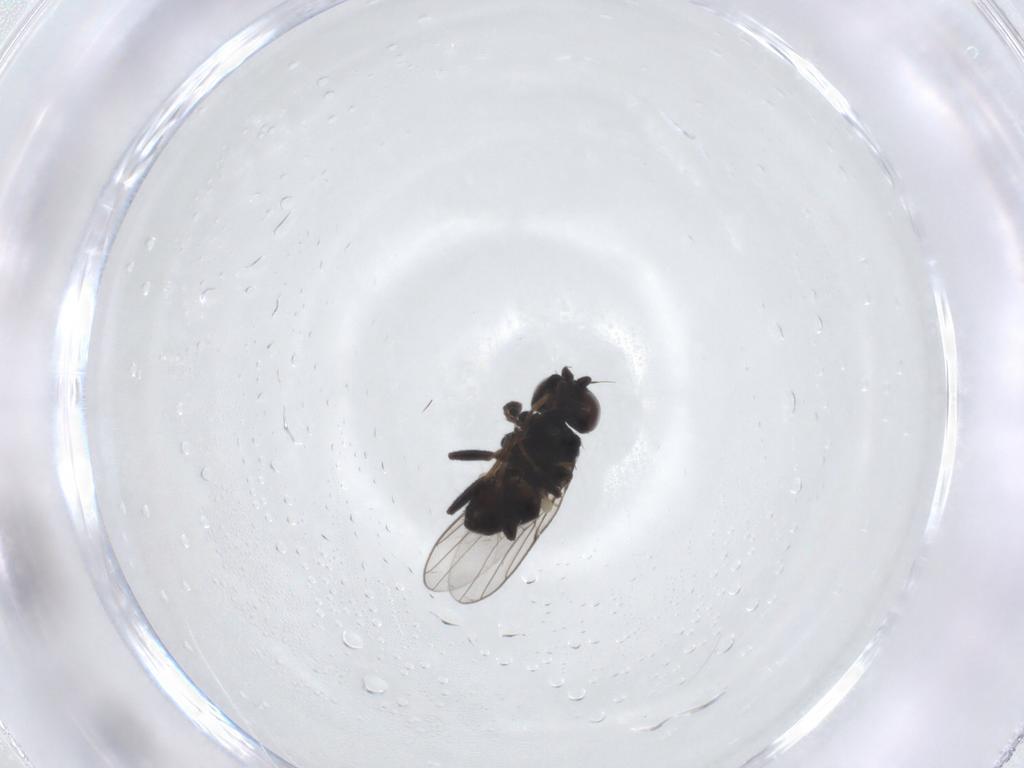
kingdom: Animalia
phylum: Arthropoda
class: Insecta
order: Diptera
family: Chloropidae
